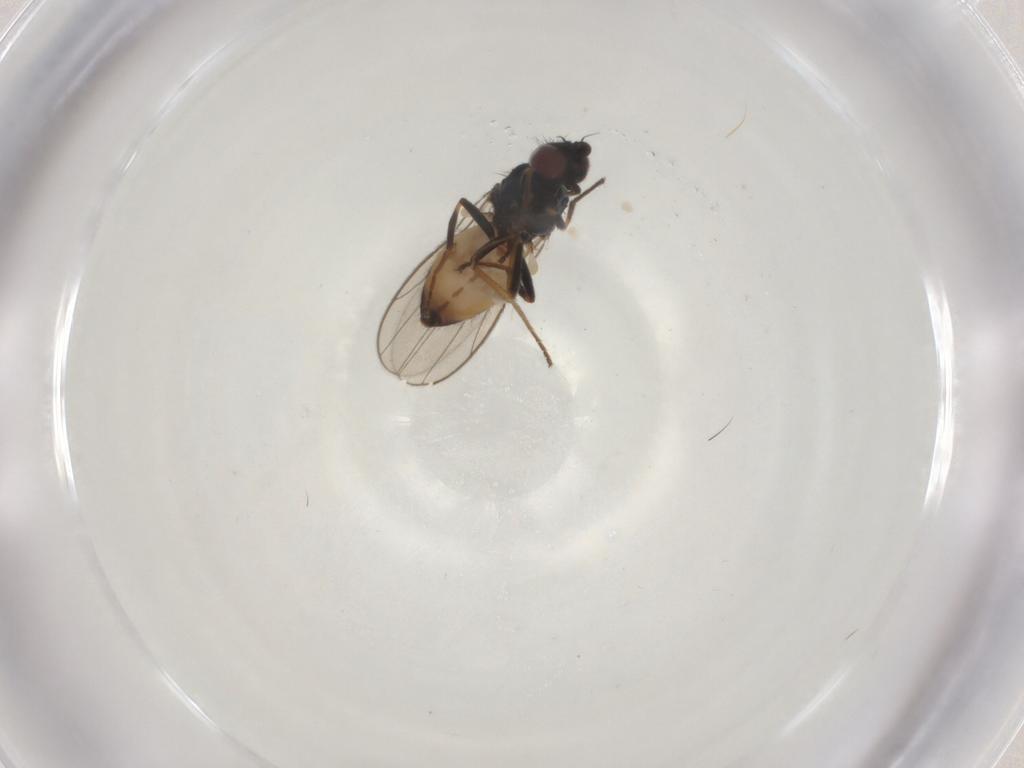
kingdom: Animalia
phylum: Arthropoda
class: Insecta
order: Diptera
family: Chloropidae
